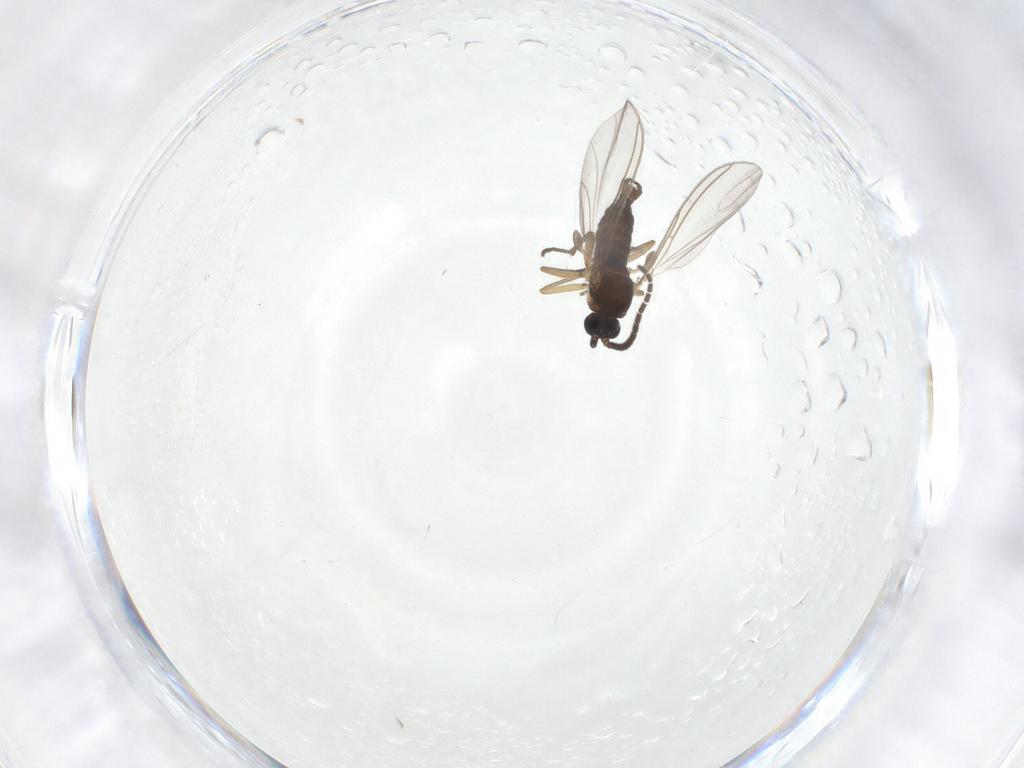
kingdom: Animalia
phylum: Arthropoda
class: Insecta
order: Diptera
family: Sciaridae
